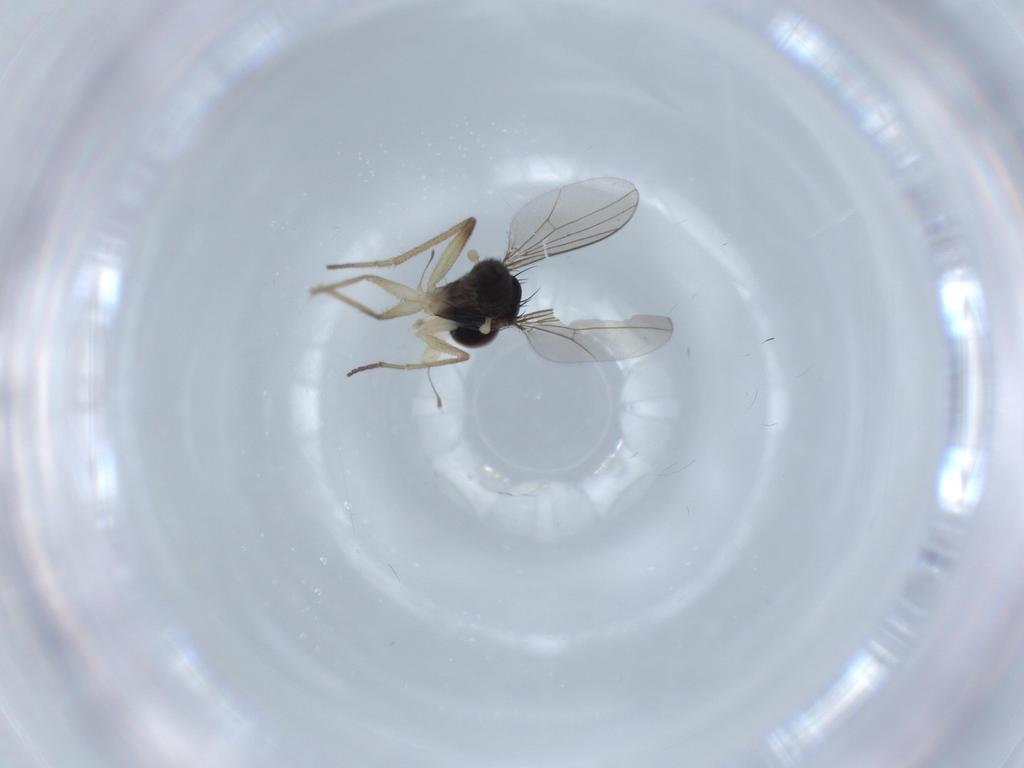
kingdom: Animalia
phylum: Arthropoda
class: Insecta
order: Diptera
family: Dolichopodidae
